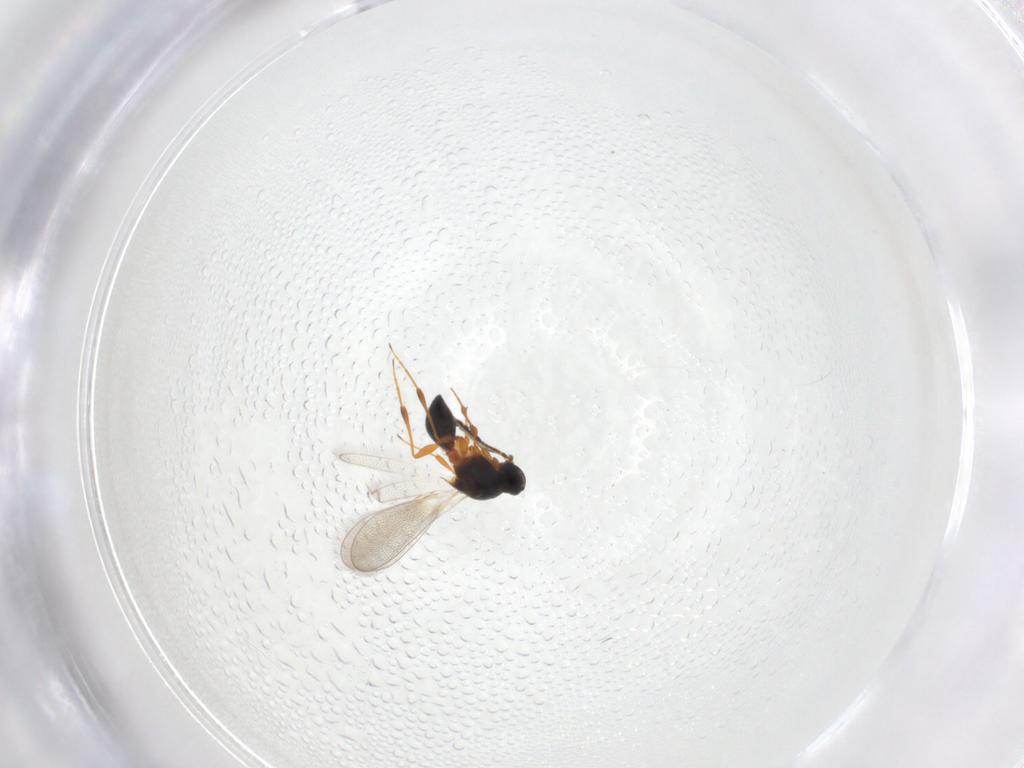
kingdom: Animalia
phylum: Arthropoda
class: Insecta
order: Hymenoptera
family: Platygastridae
